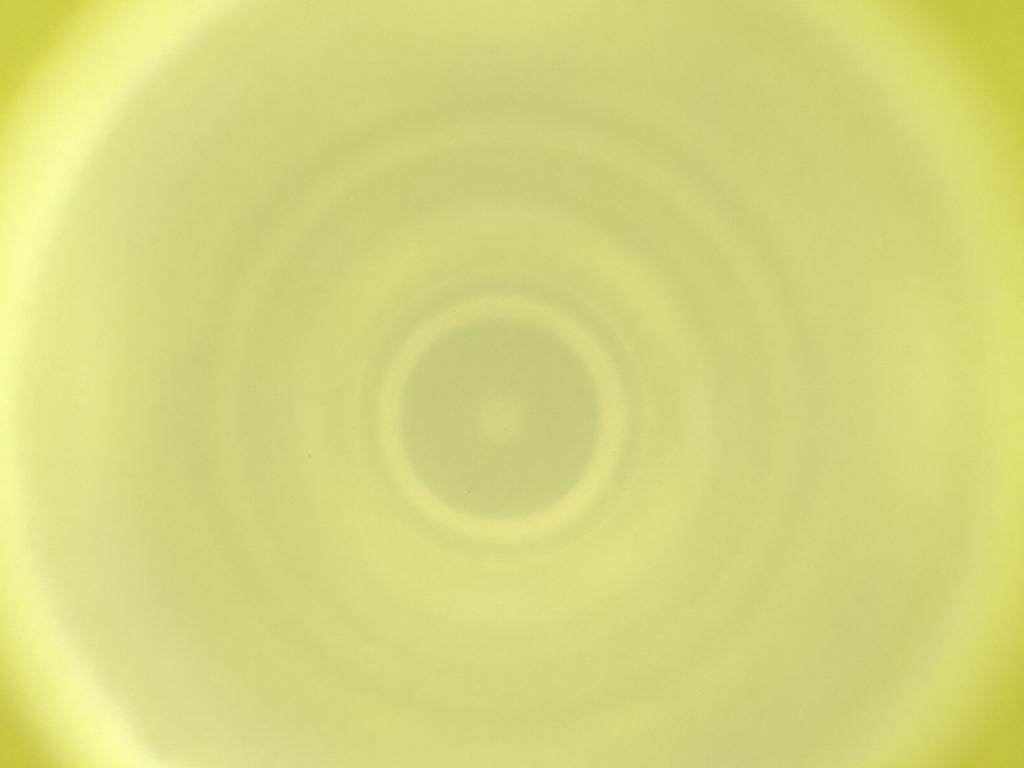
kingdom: Animalia
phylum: Arthropoda
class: Insecta
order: Diptera
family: Cecidomyiidae
